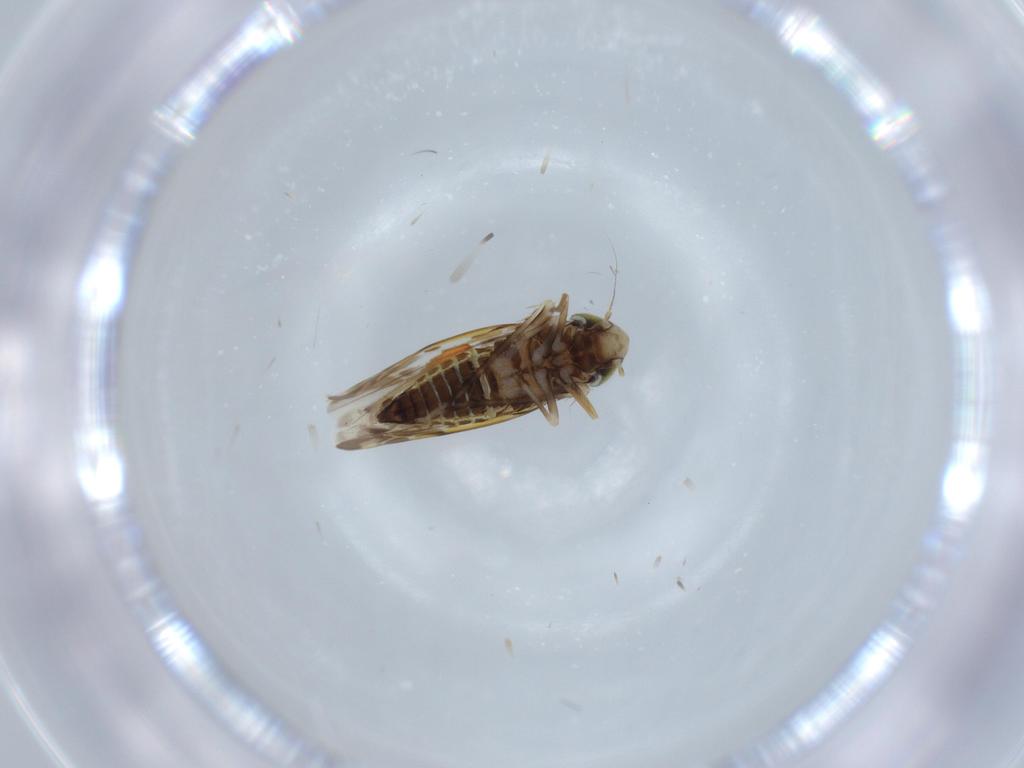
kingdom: Animalia
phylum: Arthropoda
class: Insecta
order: Hemiptera
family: Cicadellidae
